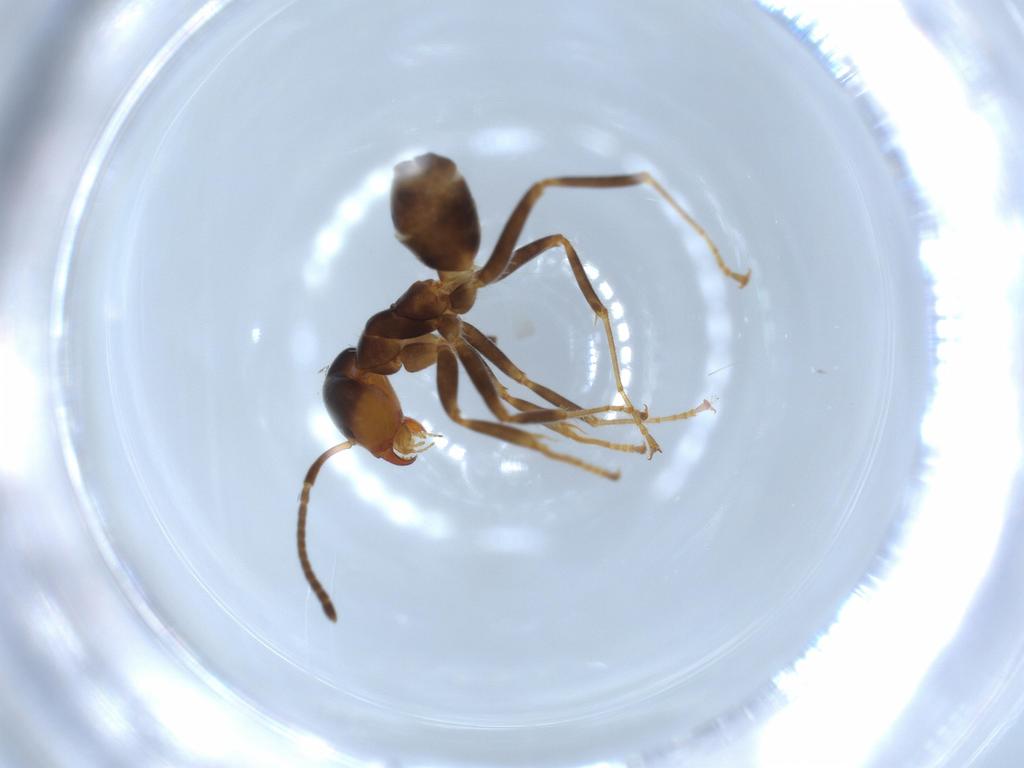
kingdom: Animalia
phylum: Arthropoda
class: Insecta
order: Hymenoptera
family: Formicidae
